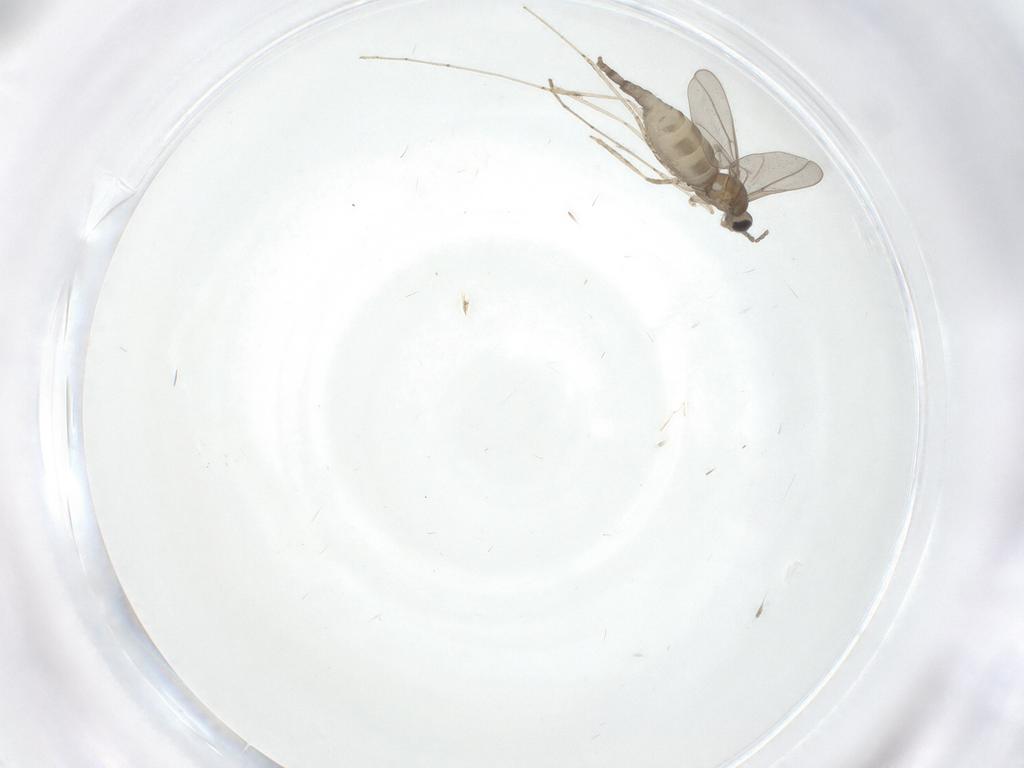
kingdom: Animalia
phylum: Arthropoda
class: Insecta
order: Diptera
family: Cecidomyiidae
